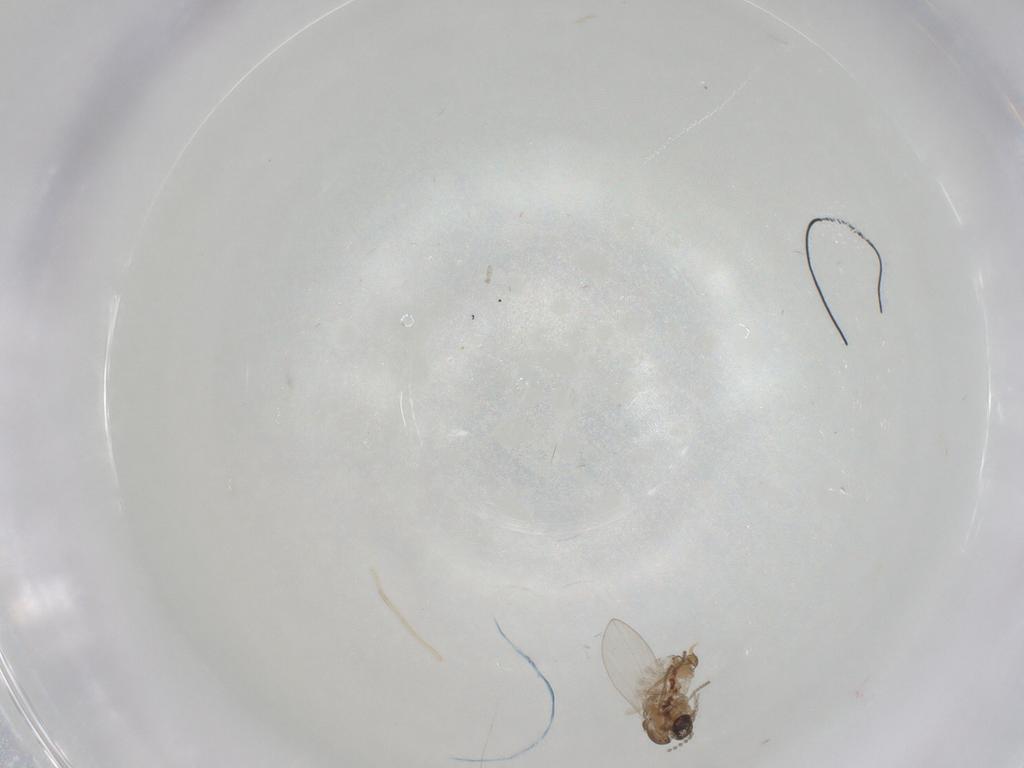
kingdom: Animalia
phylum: Arthropoda
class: Insecta
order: Diptera
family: Psychodidae
